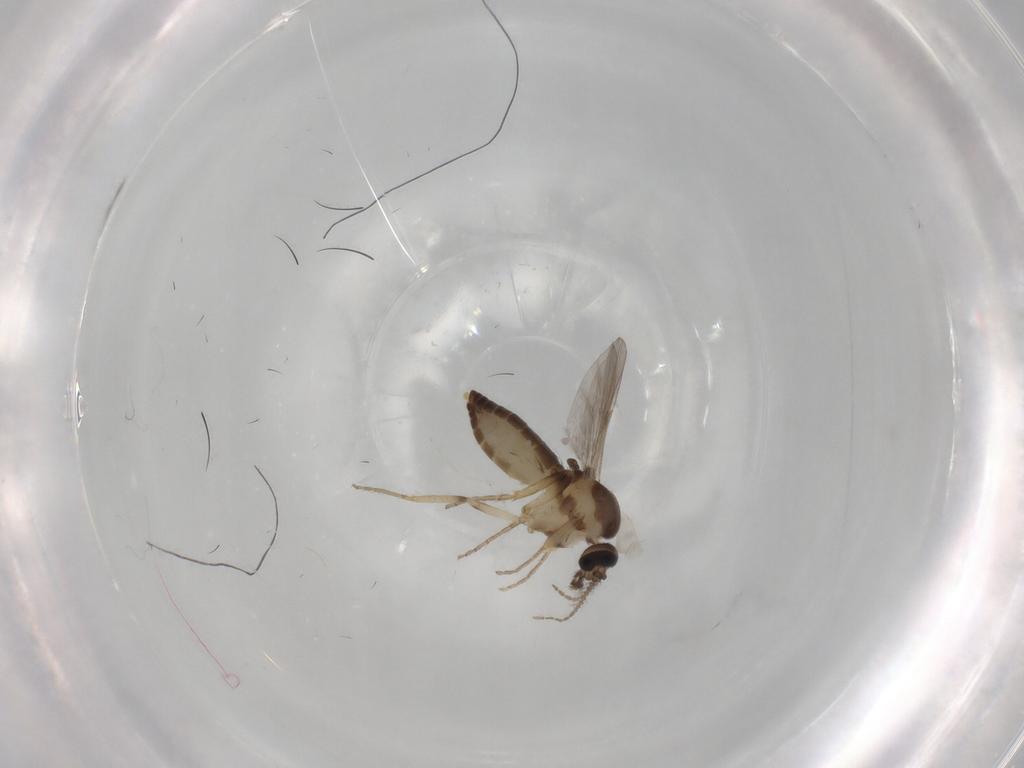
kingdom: Animalia
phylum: Arthropoda
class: Insecta
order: Diptera
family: Ceratopogonidae
